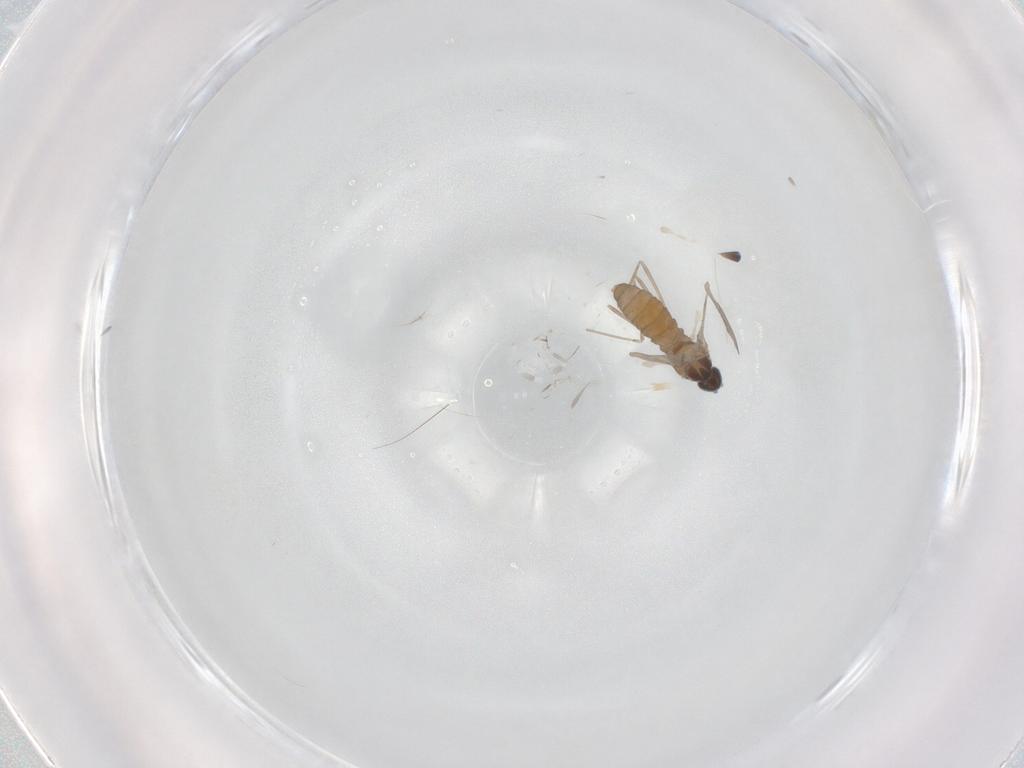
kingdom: Animalia
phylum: Arthropoda
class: Insecta
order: Diptera
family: Cecidomyiidae
